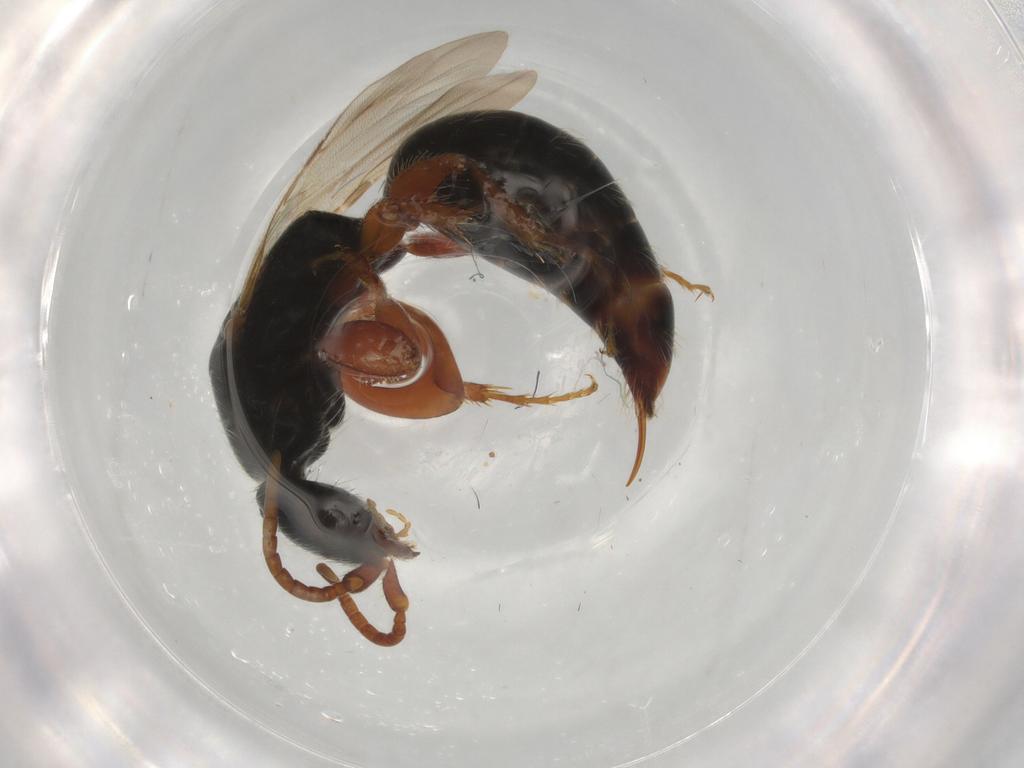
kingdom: Animalia
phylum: Arthropoda
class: Insecta
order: Hymenoptera
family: Bethylidae
